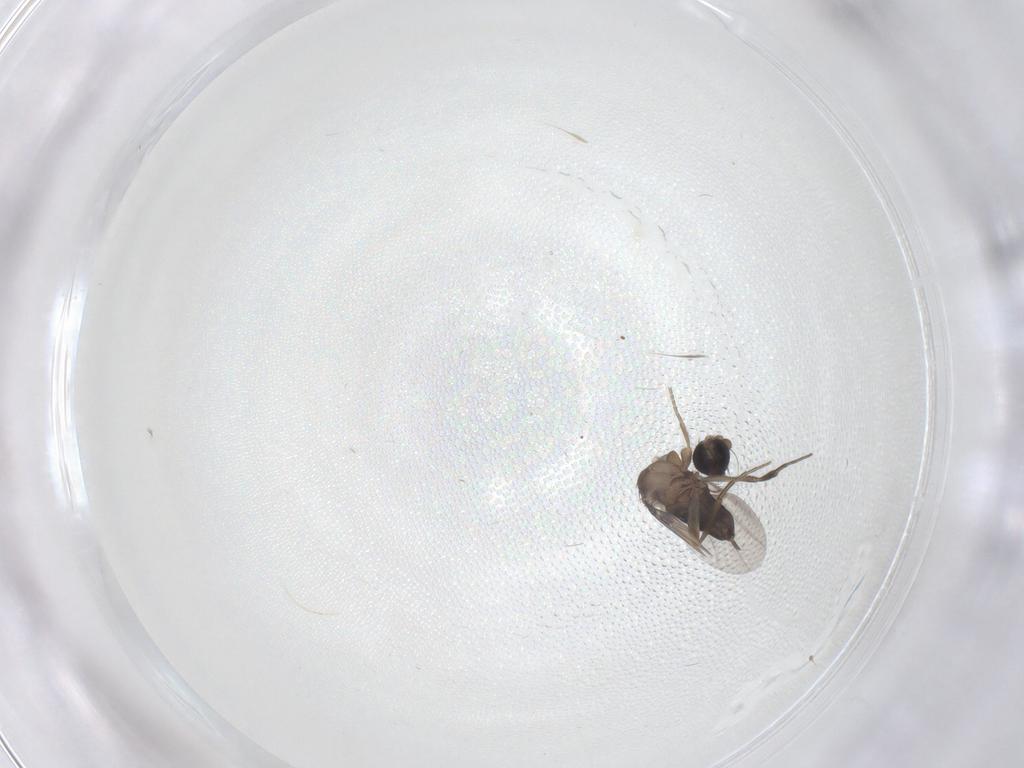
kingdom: Animalia
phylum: Arthropoda
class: Insecta
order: Diptera
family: Phoridae
